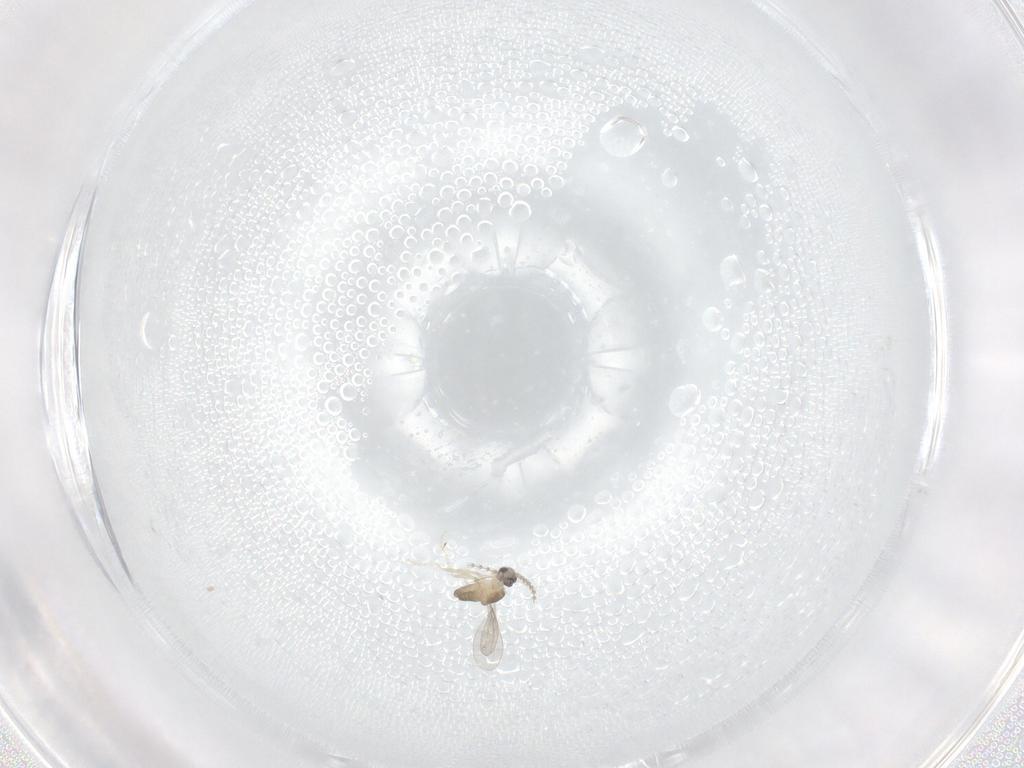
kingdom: Animalia
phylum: Arthropoda
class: Insecta
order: Diptera
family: Cecidomyiidae
